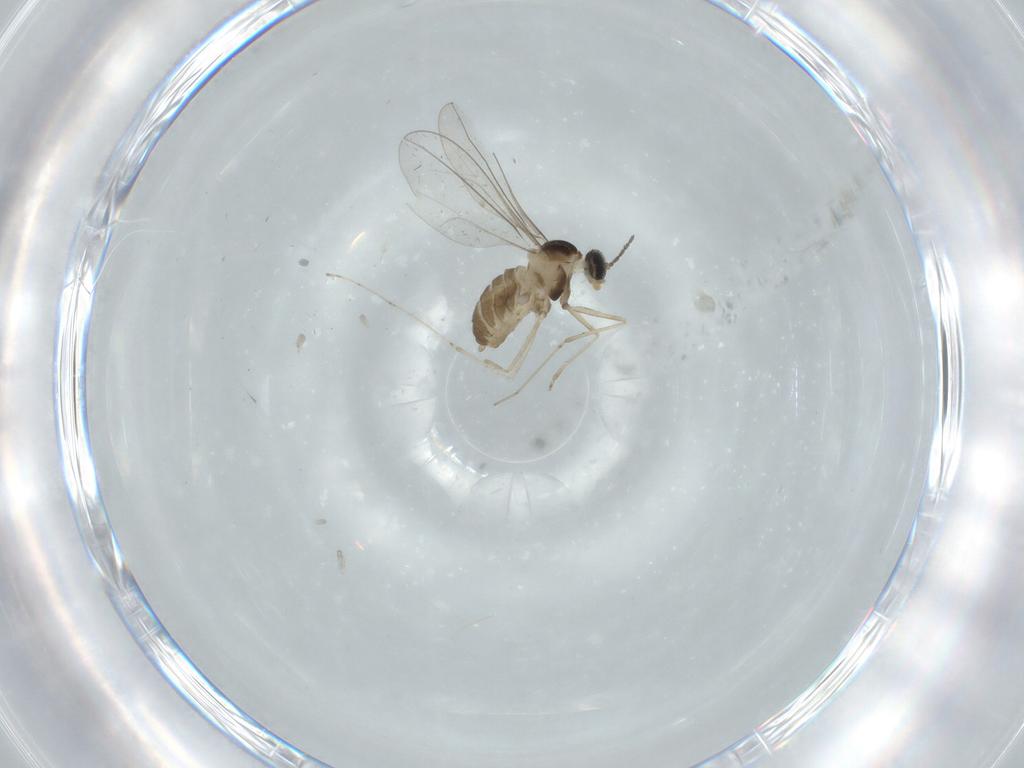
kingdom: Animalia
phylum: Arthropoda
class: Insecta
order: Diptera
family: Cecidomyiidae
